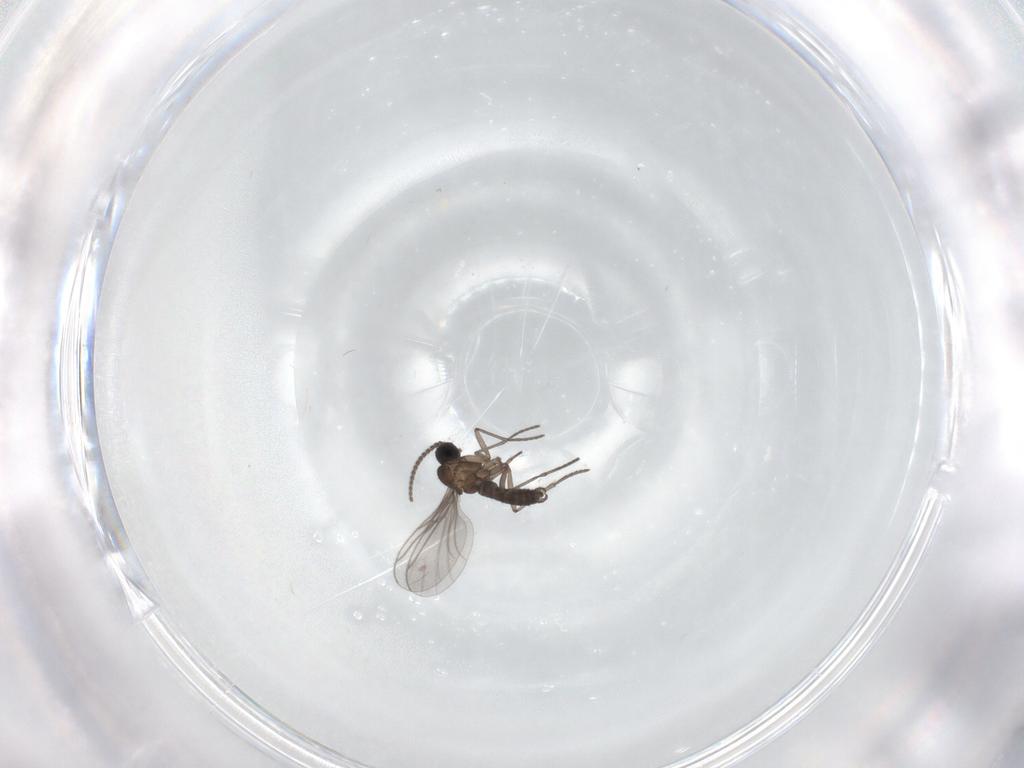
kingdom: Animalia
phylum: Arthropoda
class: Insecta
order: Diptera
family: Sciaridae
